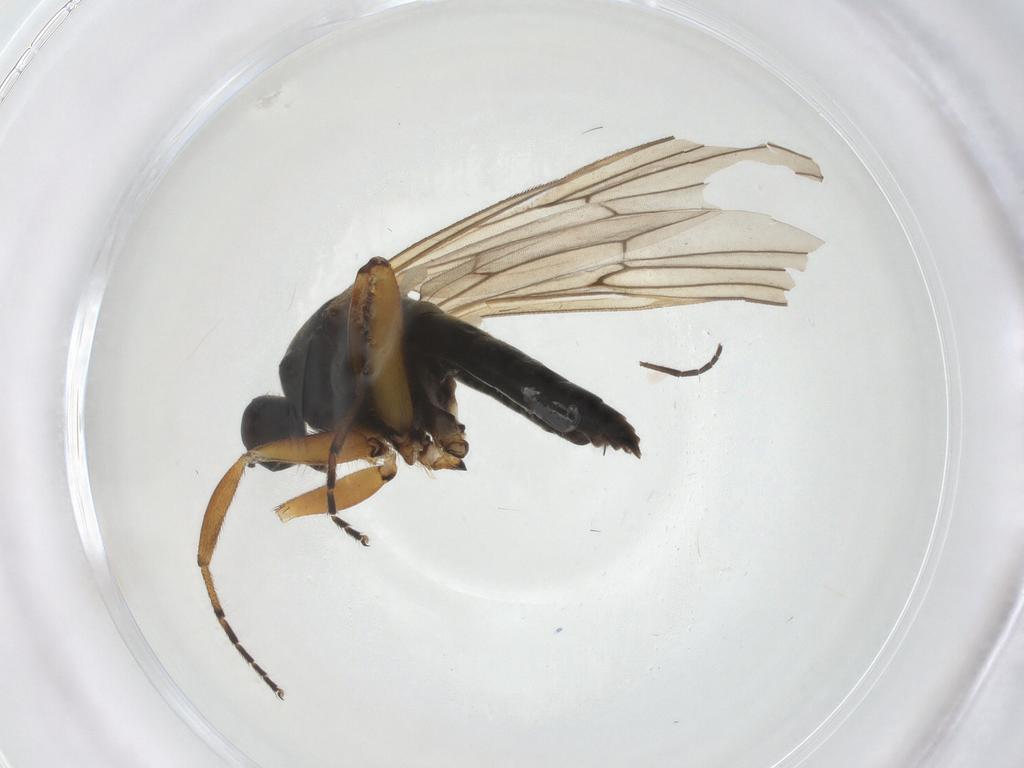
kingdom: Animalia
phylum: Arthropoda
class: Insecta
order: Diptera
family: Hybotidae
